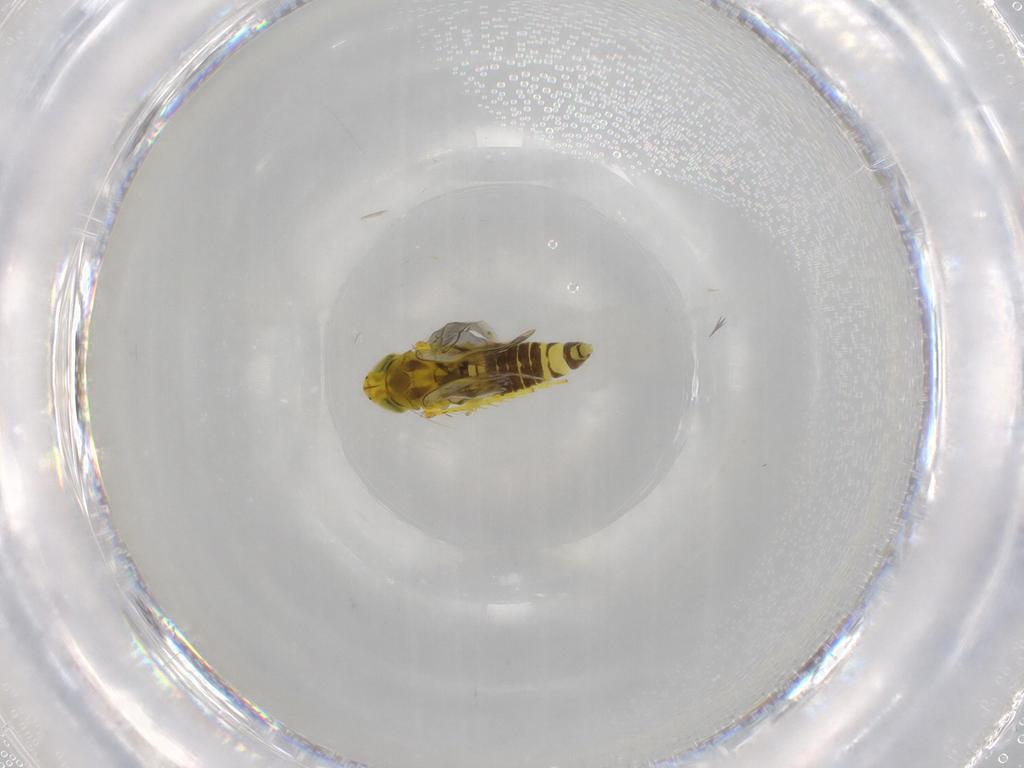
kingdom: Animalia
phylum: Arthropoda
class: Insecta
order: Hemiptera
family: Cicadellidae
